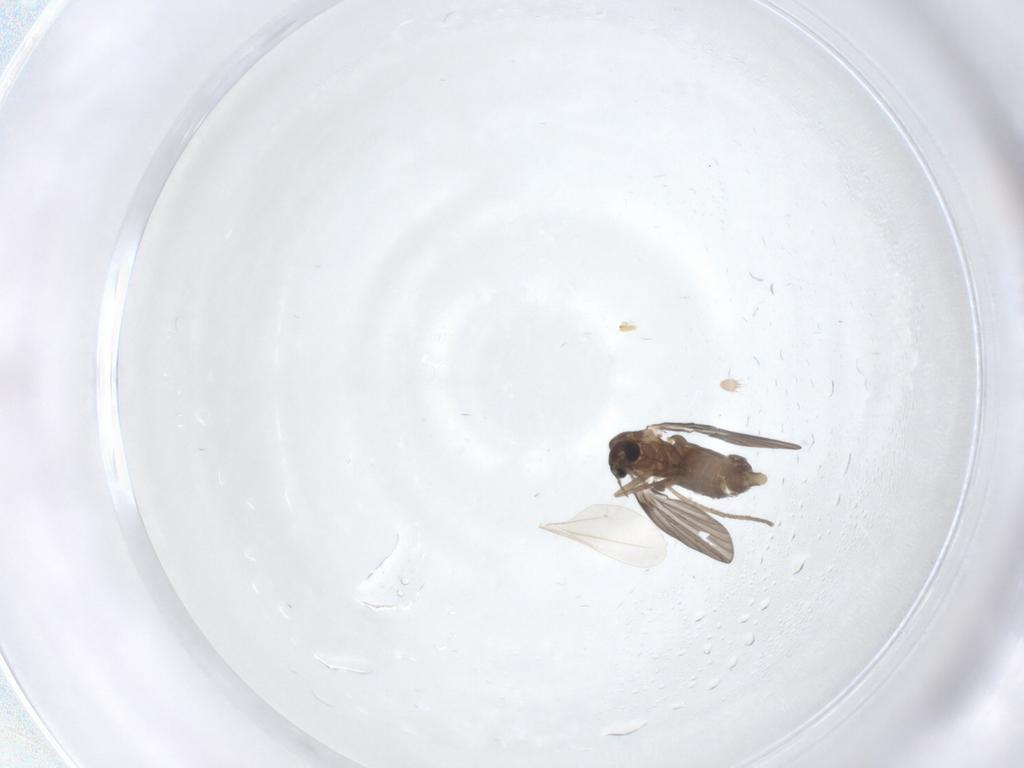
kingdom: Animalia
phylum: Arthropoda
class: Insecta
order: Diptera
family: Psychodidae
